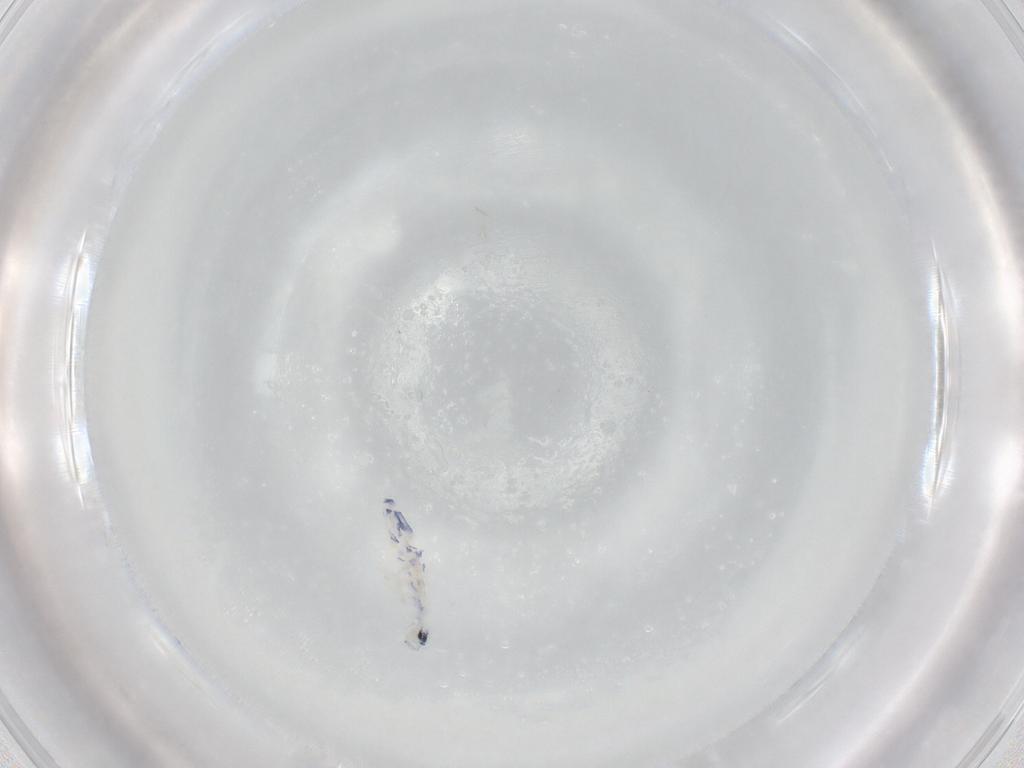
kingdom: Animalia
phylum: Arthropoda
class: Collembola
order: Entomobryomorpha
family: Entomobryidae
